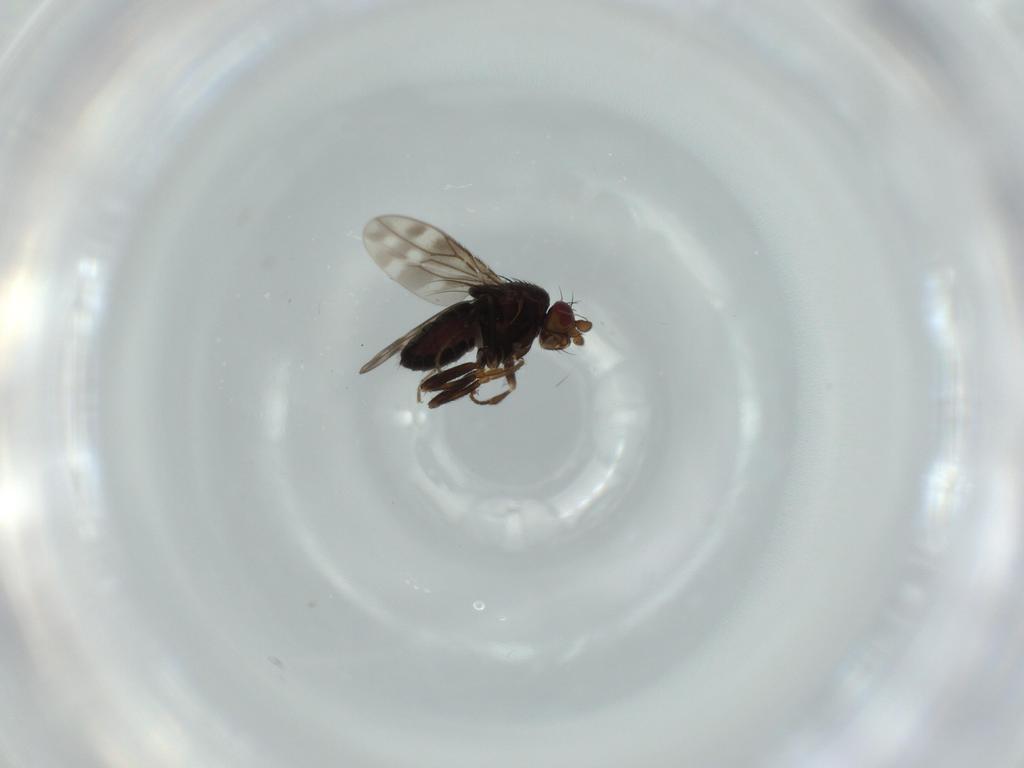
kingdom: Animalia
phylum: Arthropoda
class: Insecta
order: Diptera
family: Sphaeroceridae
